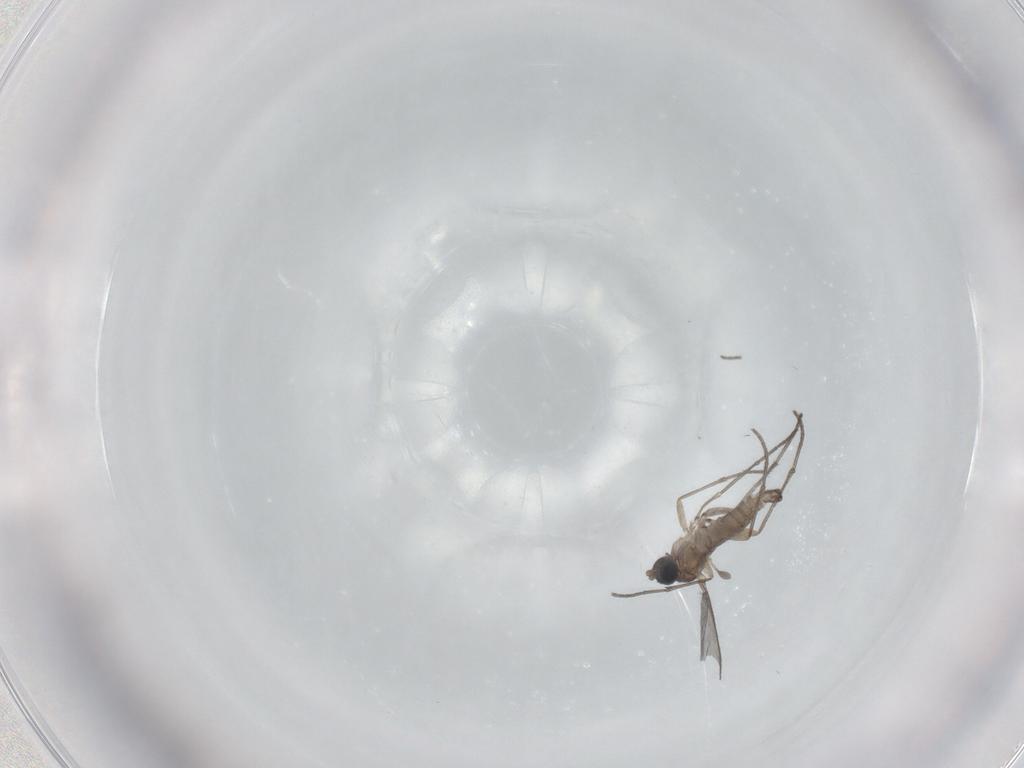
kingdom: Animalia
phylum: Arthropoda
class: Insecta
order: Diptera
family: Sciaridae
